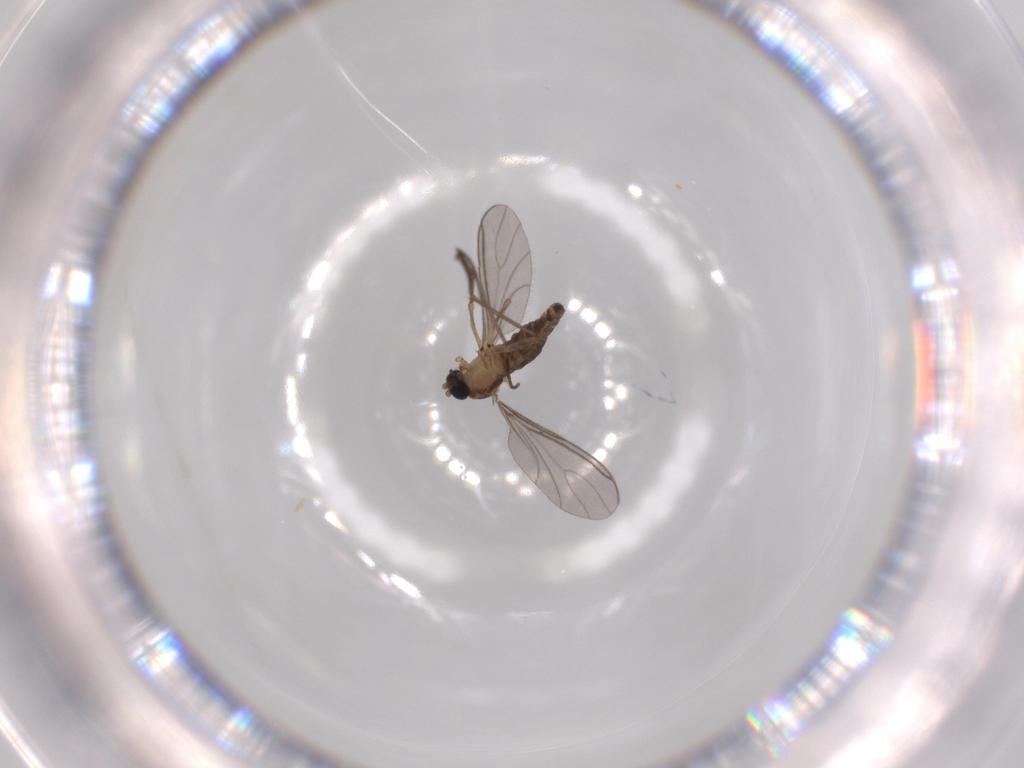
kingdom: Animalia
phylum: Arthropoda
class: Insecta
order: Diptera
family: Sciaridae
